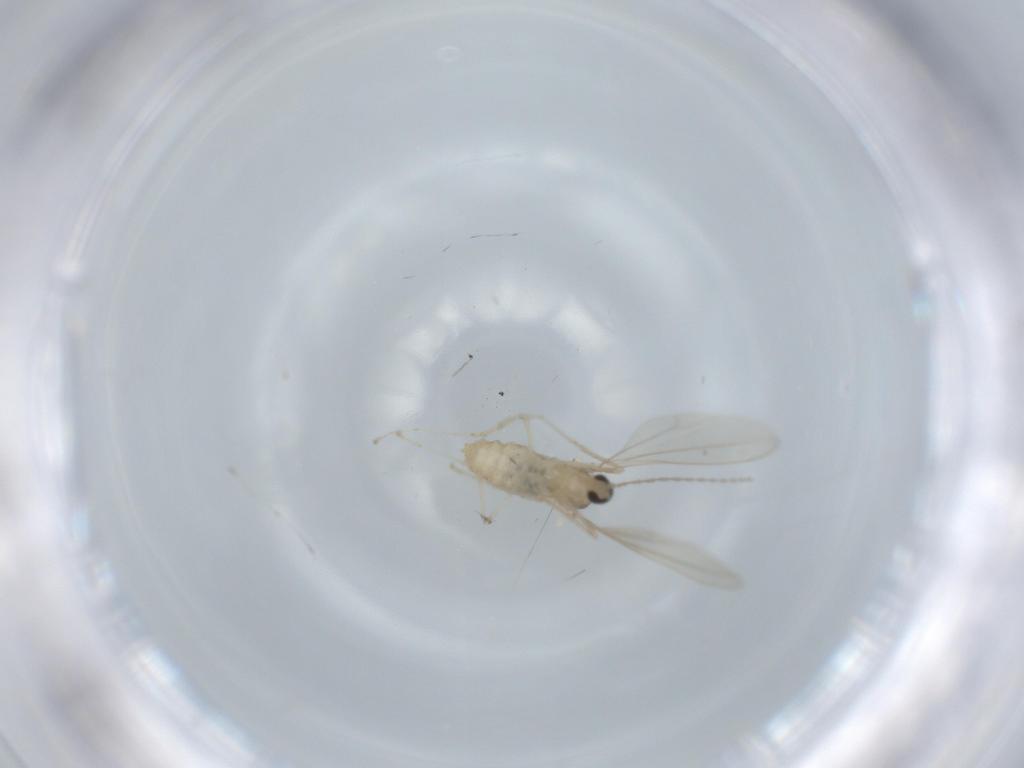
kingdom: Animalia
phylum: Arthropoda
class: Insecta
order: Diptera
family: Cecidomyiidae
